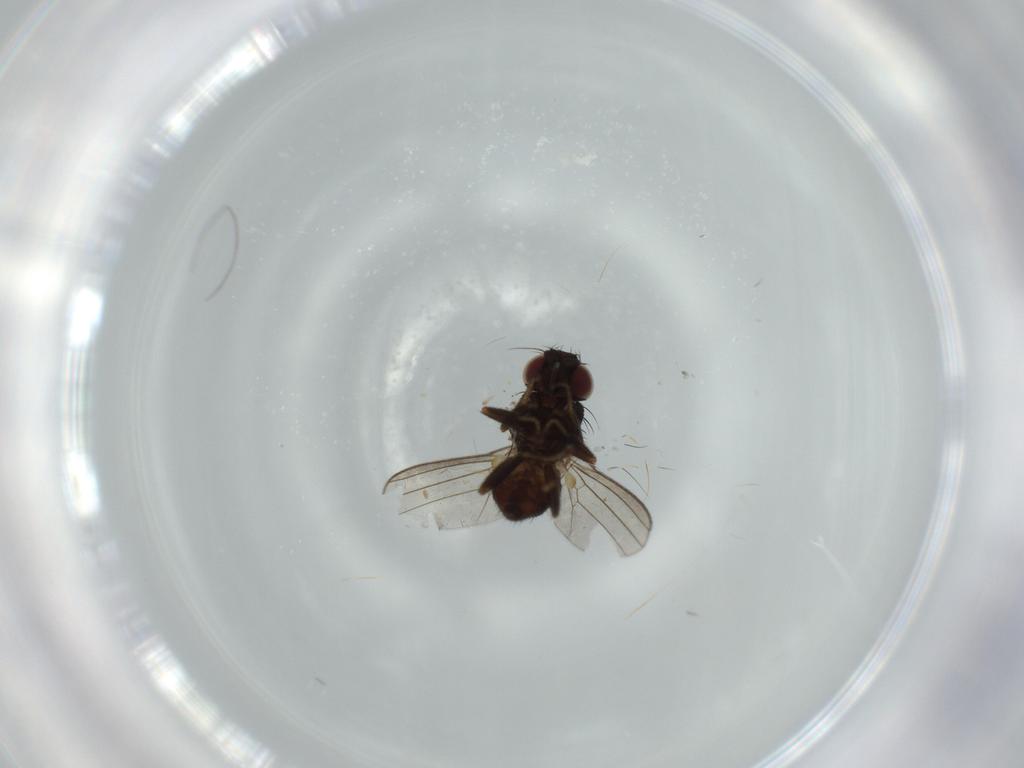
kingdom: Animalia
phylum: Arthropoda
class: Insecta
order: Diptera
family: Milichiidae
